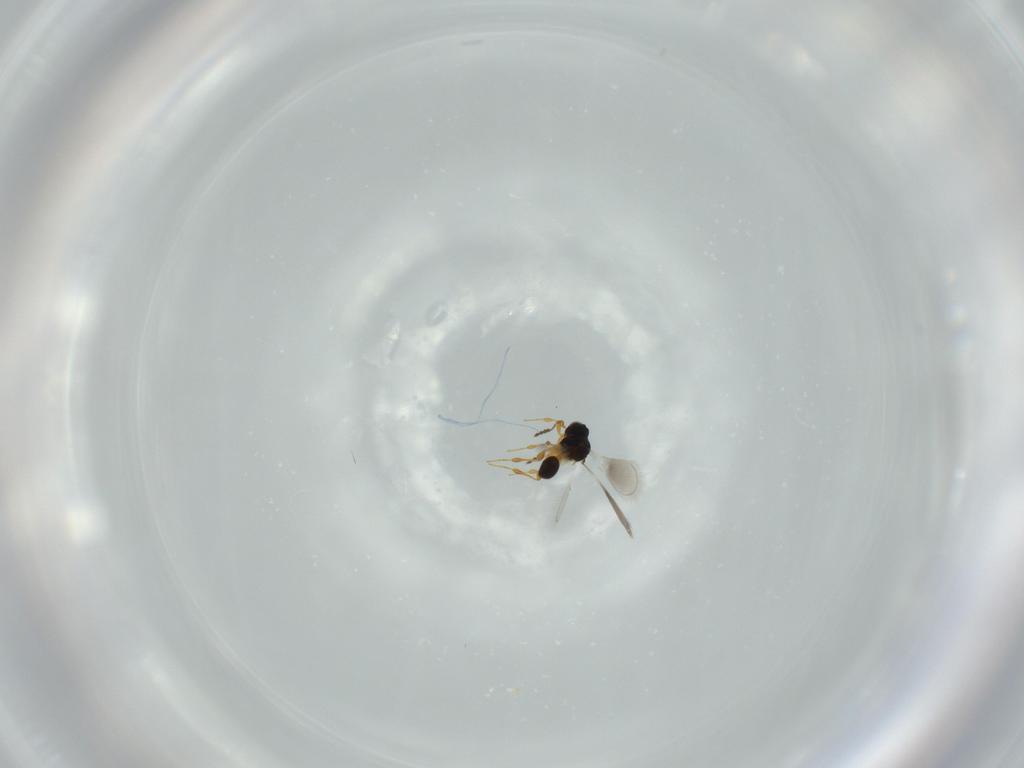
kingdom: Animalia
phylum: Arthropoda
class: Insecta
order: Hymenoptera
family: Platygastridae
